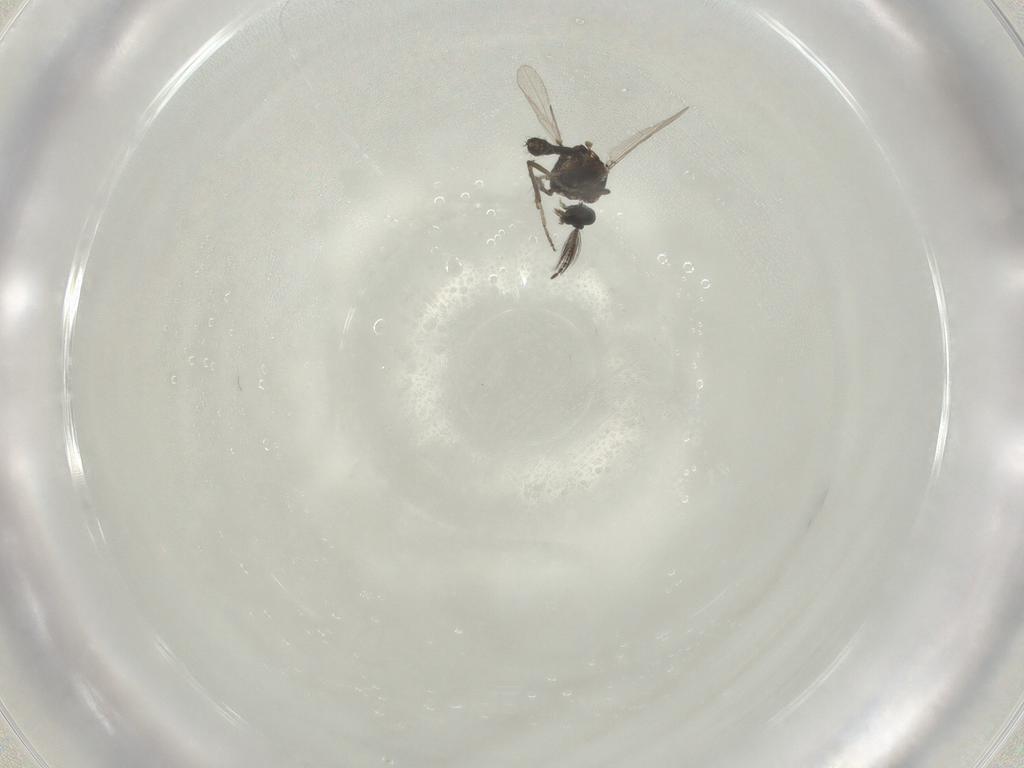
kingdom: Animalia
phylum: Arthropoda
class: Insecta
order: Diptera
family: Ceratopogonidae
